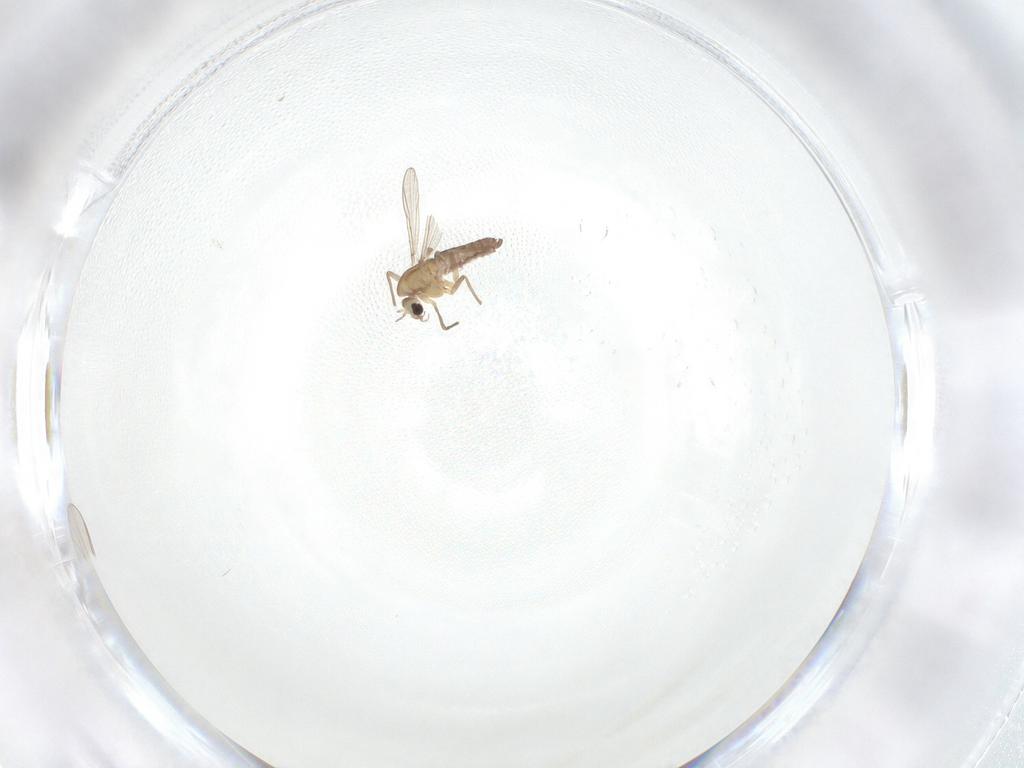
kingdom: Animalia
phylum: Arthropoda
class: Insecta
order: Diptera
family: Chironomidae
